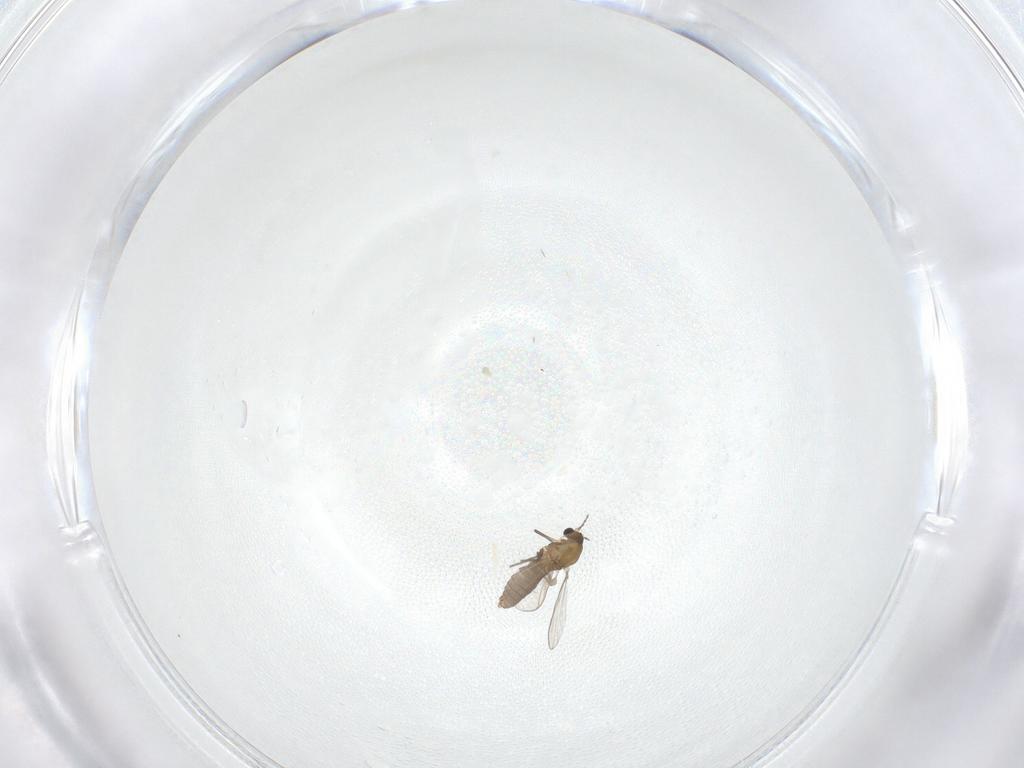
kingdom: Animalia
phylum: Arthropoda
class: Insecta
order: Diptera
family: Chironomidae
